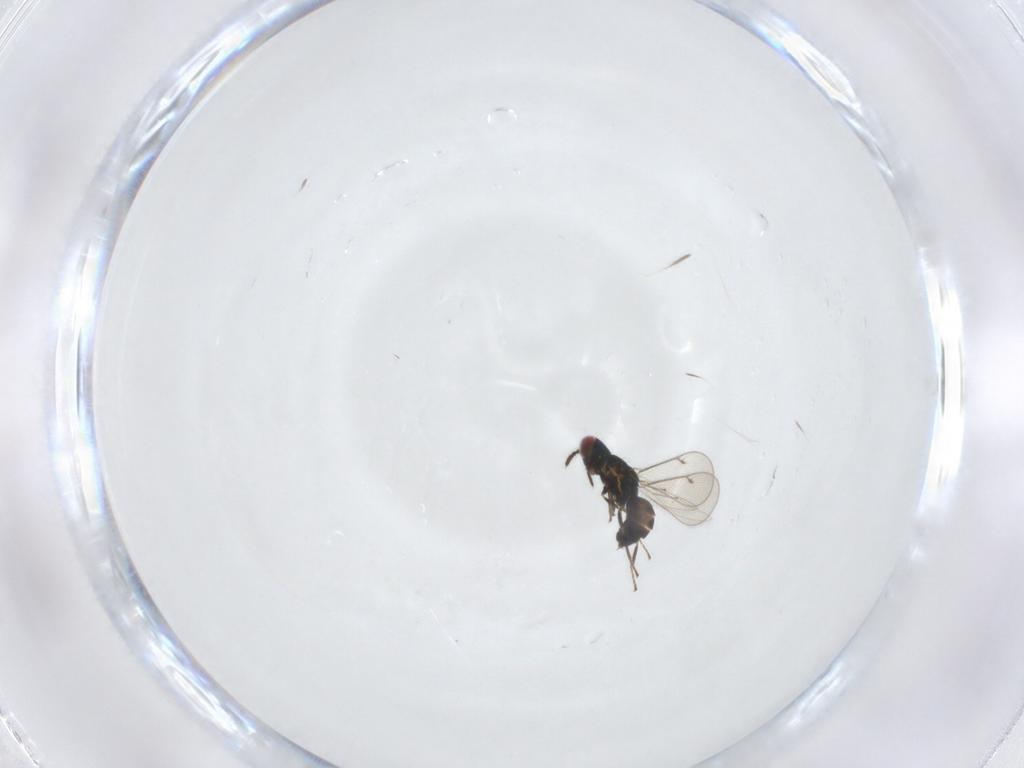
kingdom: Animalia
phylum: Arthropoda
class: Insecta
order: Hymenoptera
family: Eulophidae
